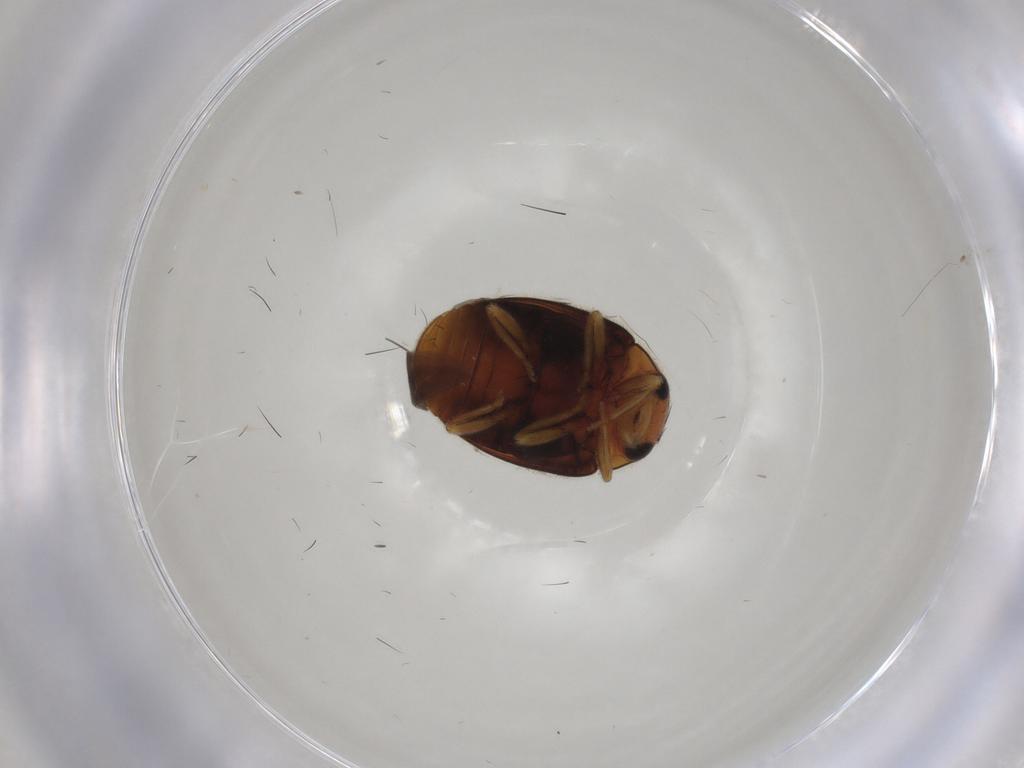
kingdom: Animalia
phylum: Arthropoda
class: Insecta
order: Coleoptera
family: Coccinellidae
